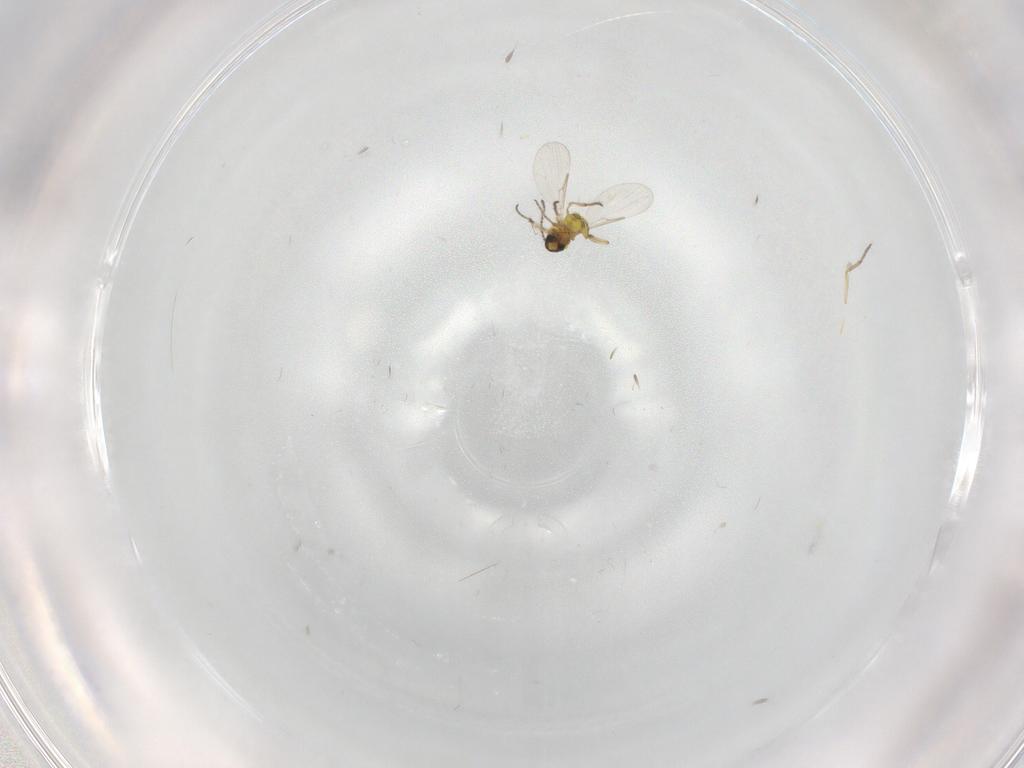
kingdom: Animalia
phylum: Arthropoda
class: Insecta
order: Diptera
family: Ceratopogonidae
